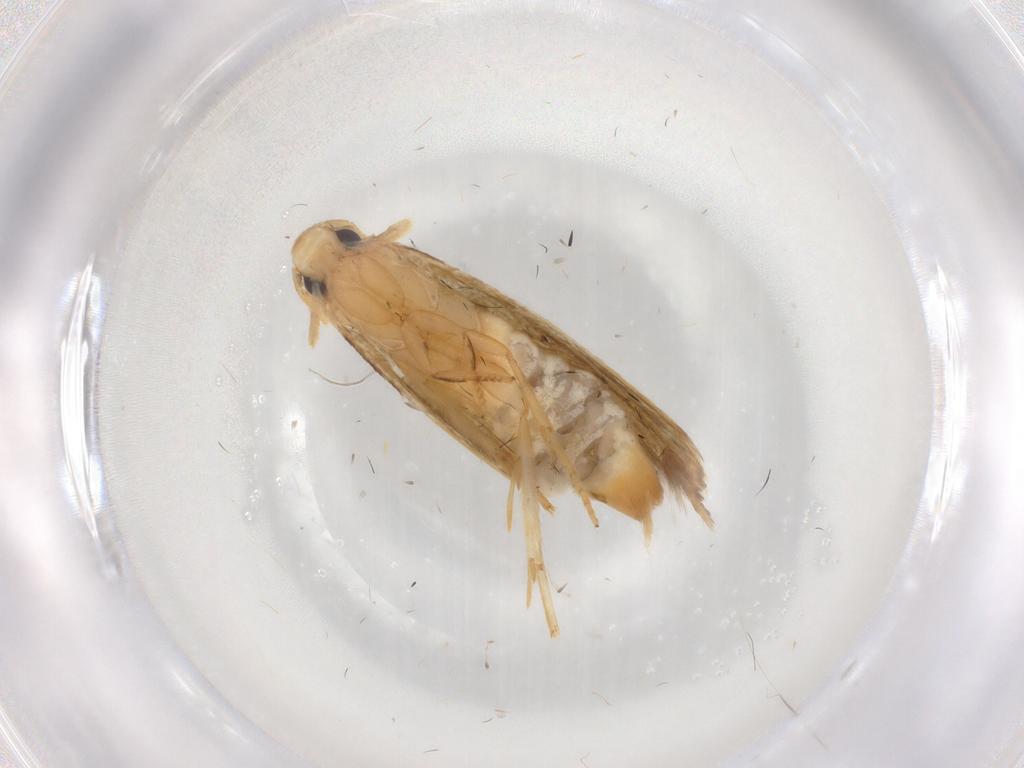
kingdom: Animalia
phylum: Arthropoda
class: Insecta
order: Lepidoptera
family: Tineidae
